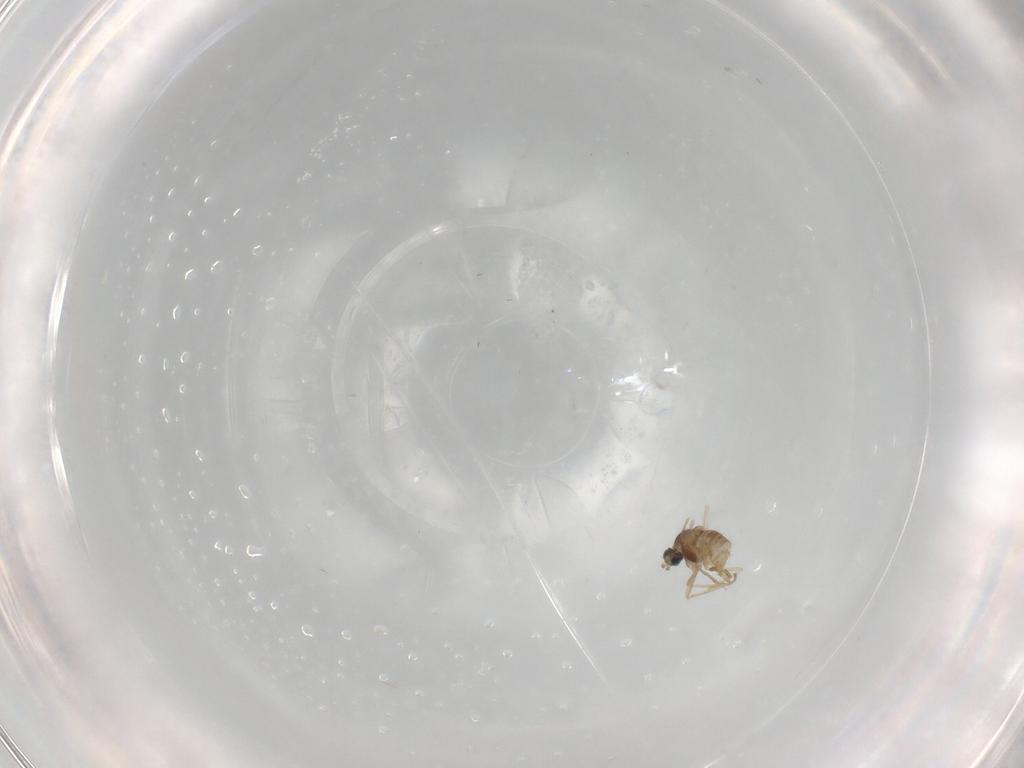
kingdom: Animalia
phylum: Arthropoda
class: Insecta
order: Diptera
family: Cecidomyiidae
